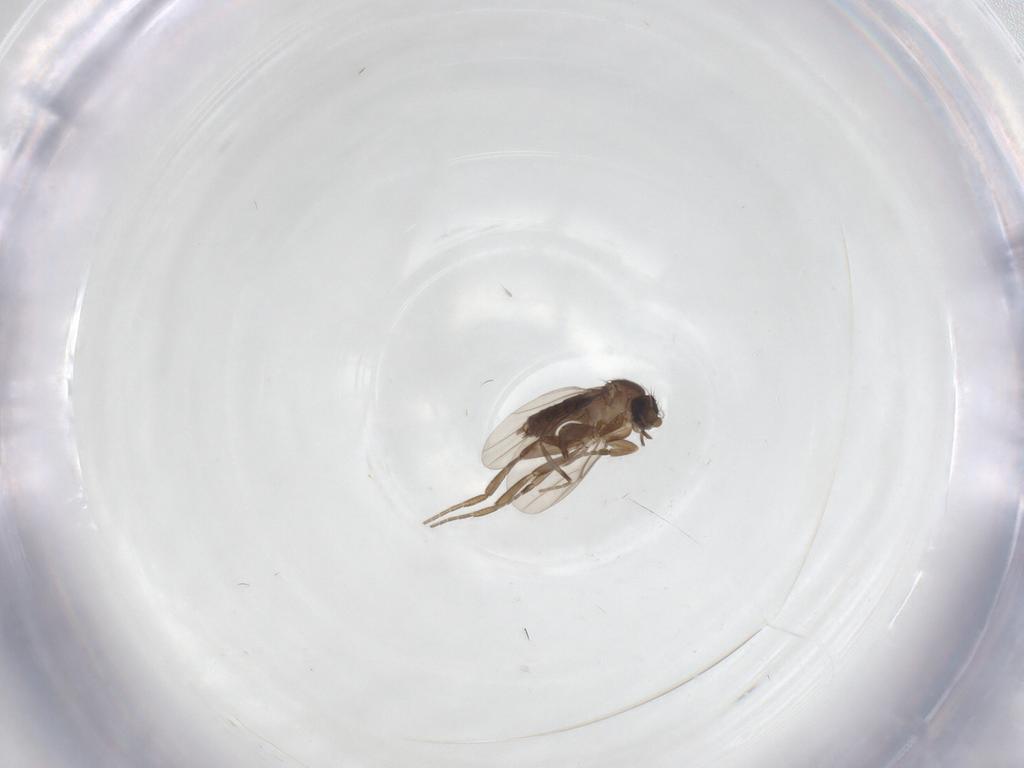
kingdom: Animalia
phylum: Arthropoda
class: Insecta
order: Diptera
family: Phoridae
